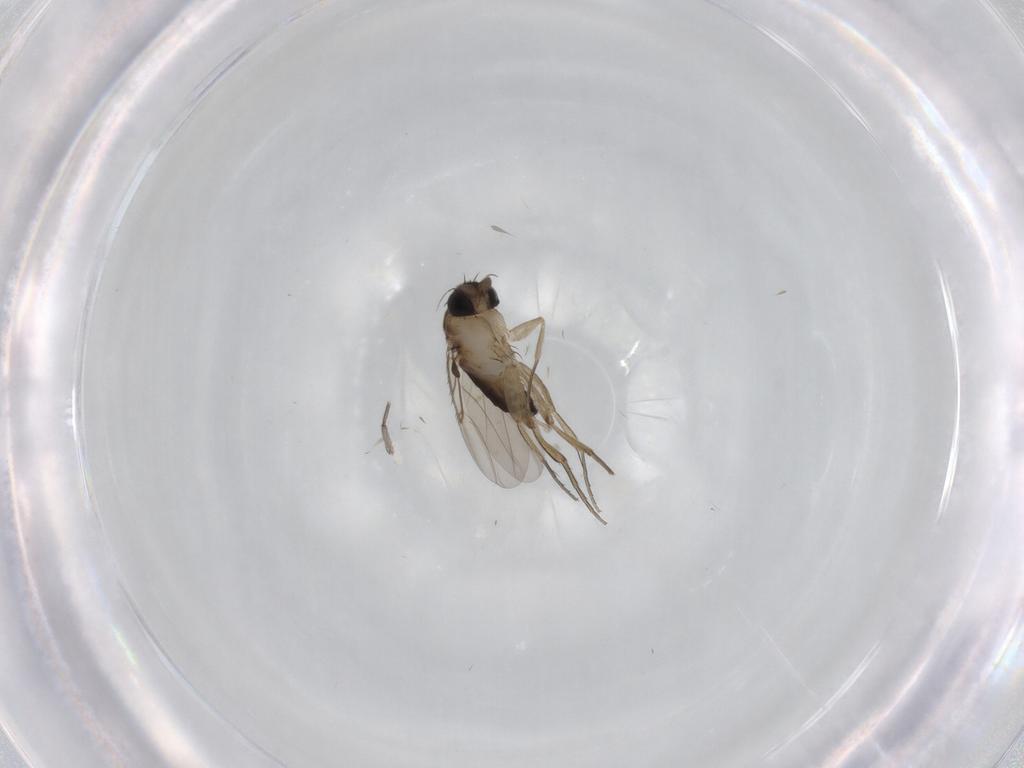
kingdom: Animalia
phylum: Arthropoda
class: Insecta
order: Diptera
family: Phoridae
